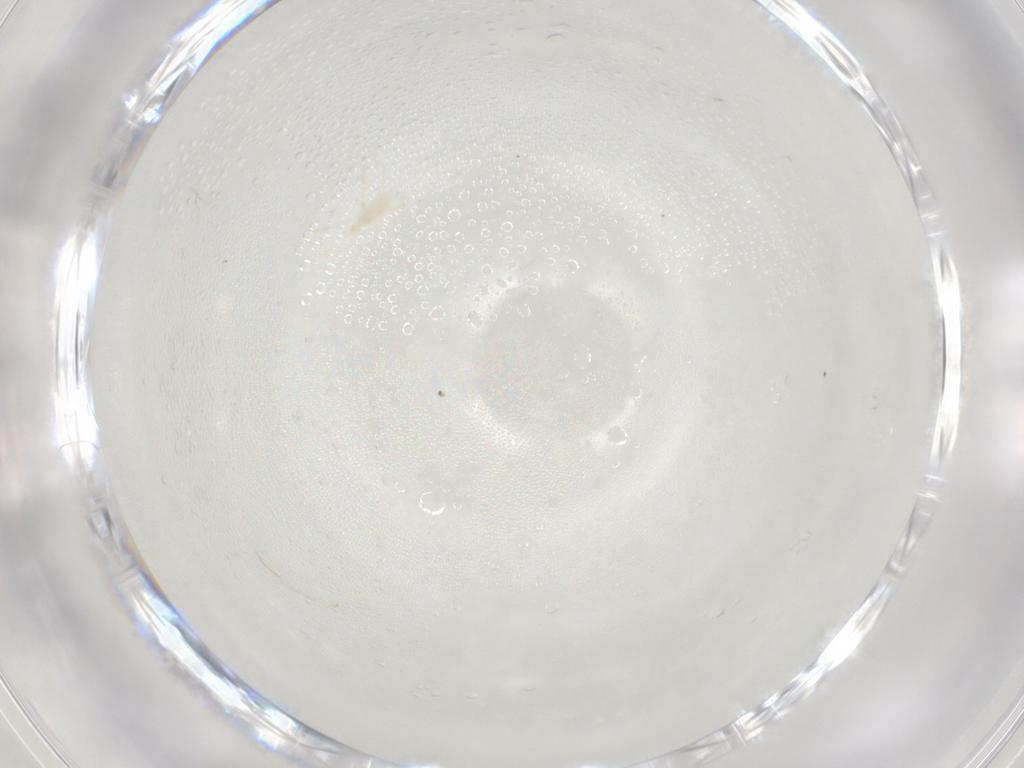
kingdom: Animalia
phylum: Arthropoda
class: Arachnida
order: Trombidiformes
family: Erythraeidae
